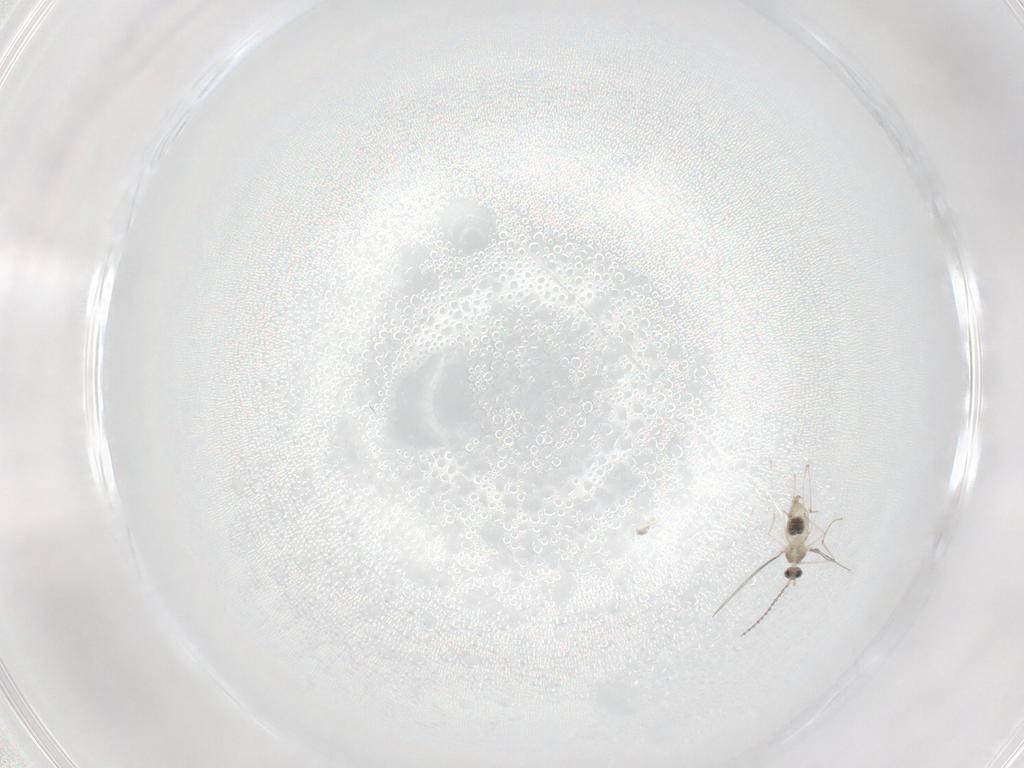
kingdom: Animalia
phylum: Arthropoda
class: Insecta
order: Diptera
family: Cecidomyiidae
